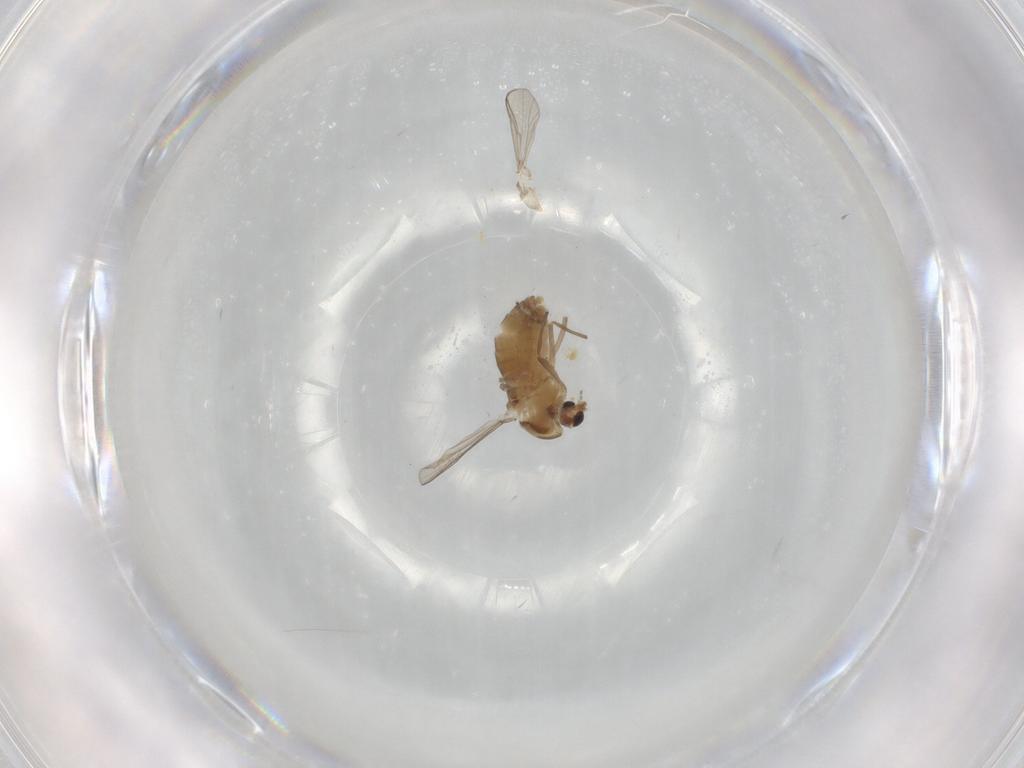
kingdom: Animalia
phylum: Arthropoda
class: Insecta
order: Diptera
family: Chironomidae
